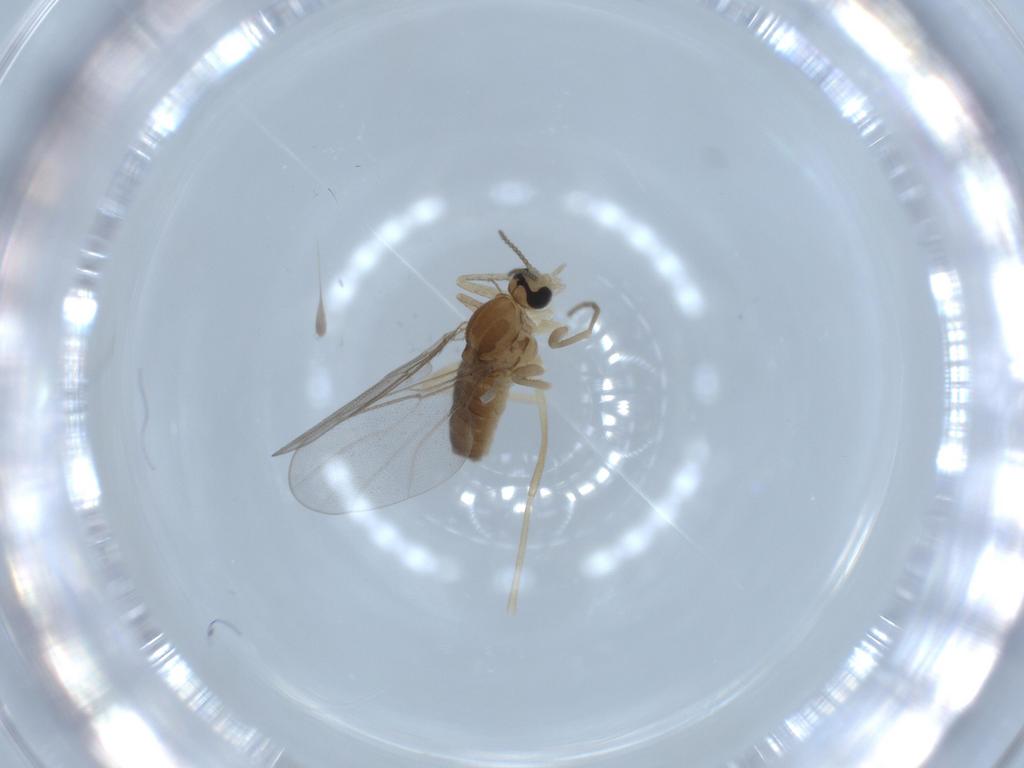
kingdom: Animalia
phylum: Arthropoda
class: Insecta
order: Diptera
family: Cecidomyiidae
